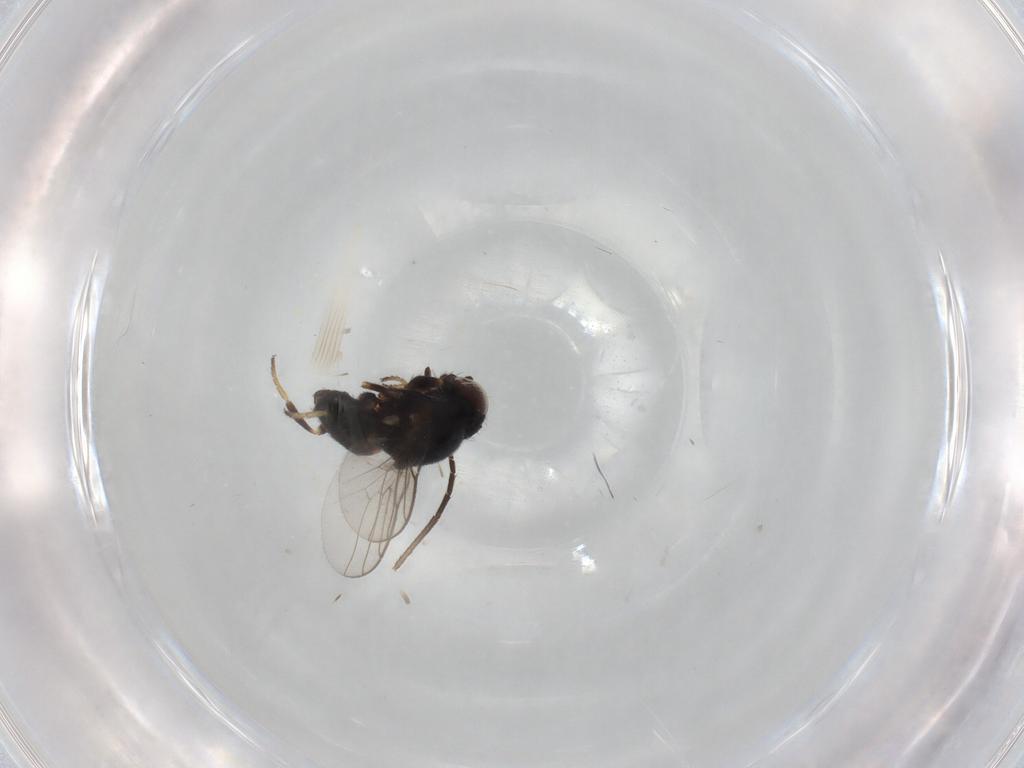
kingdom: Animalia
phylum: Arthropoda
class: Insecta
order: Diptera
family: Chloropidae
